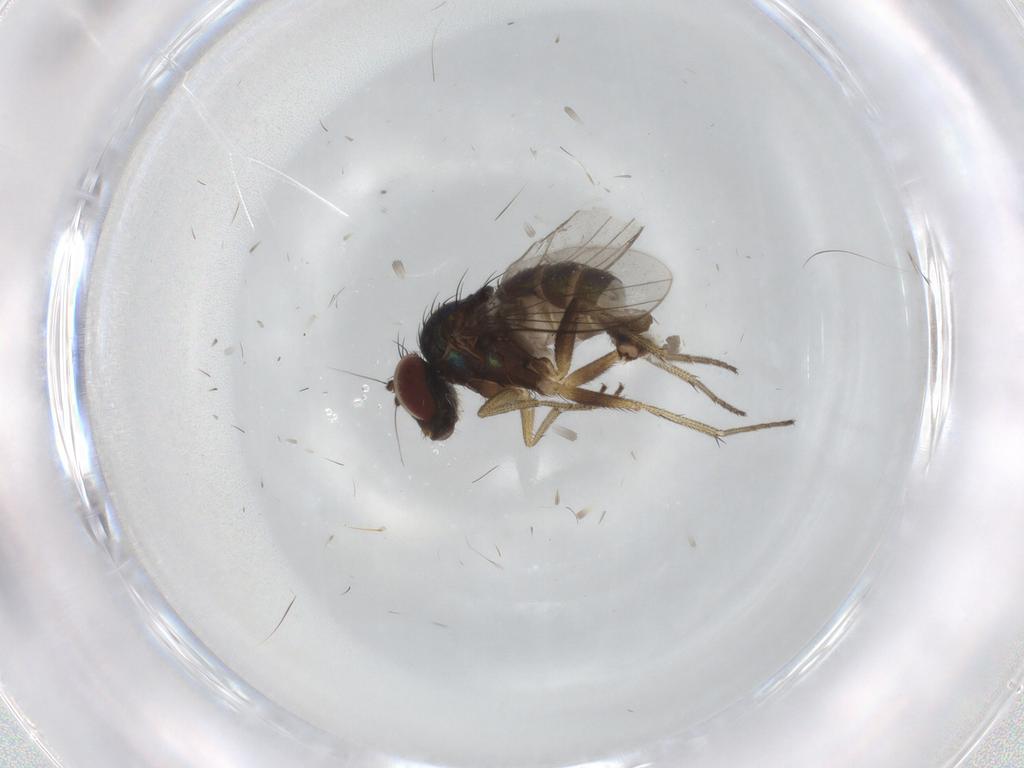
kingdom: Animalia
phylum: Arthropoda
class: Insecta
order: Diptera
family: Dolichopodidae
